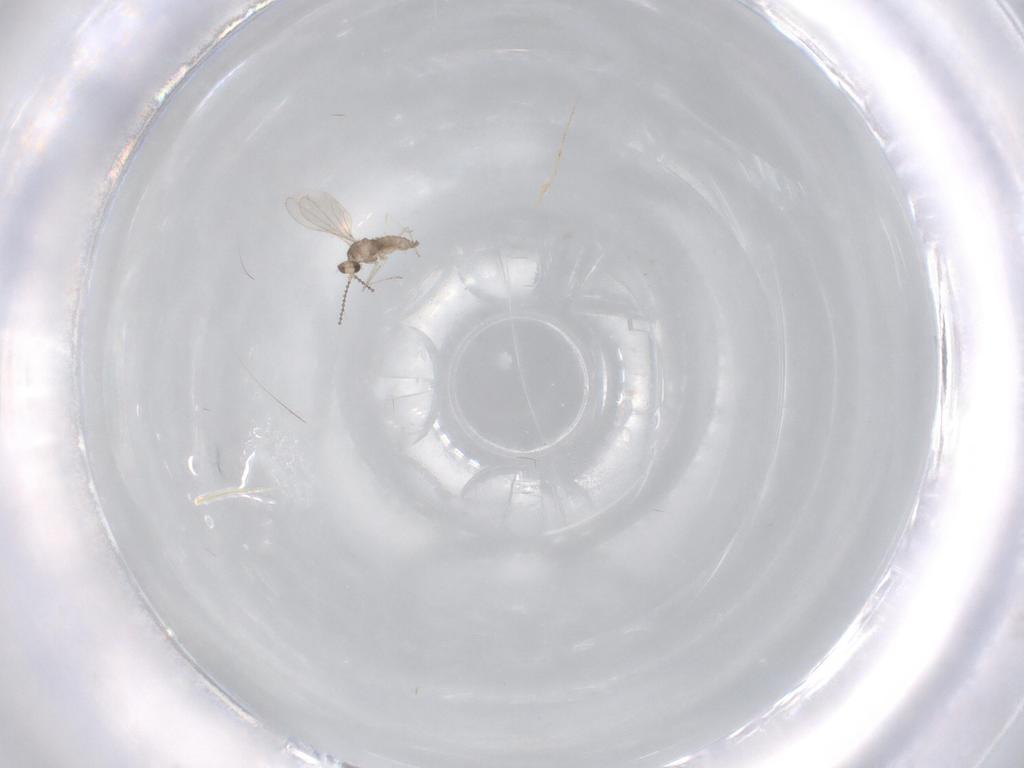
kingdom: Animalia
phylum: Arthropoda
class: Insecta
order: Diptera
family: Cecidomyiidae
